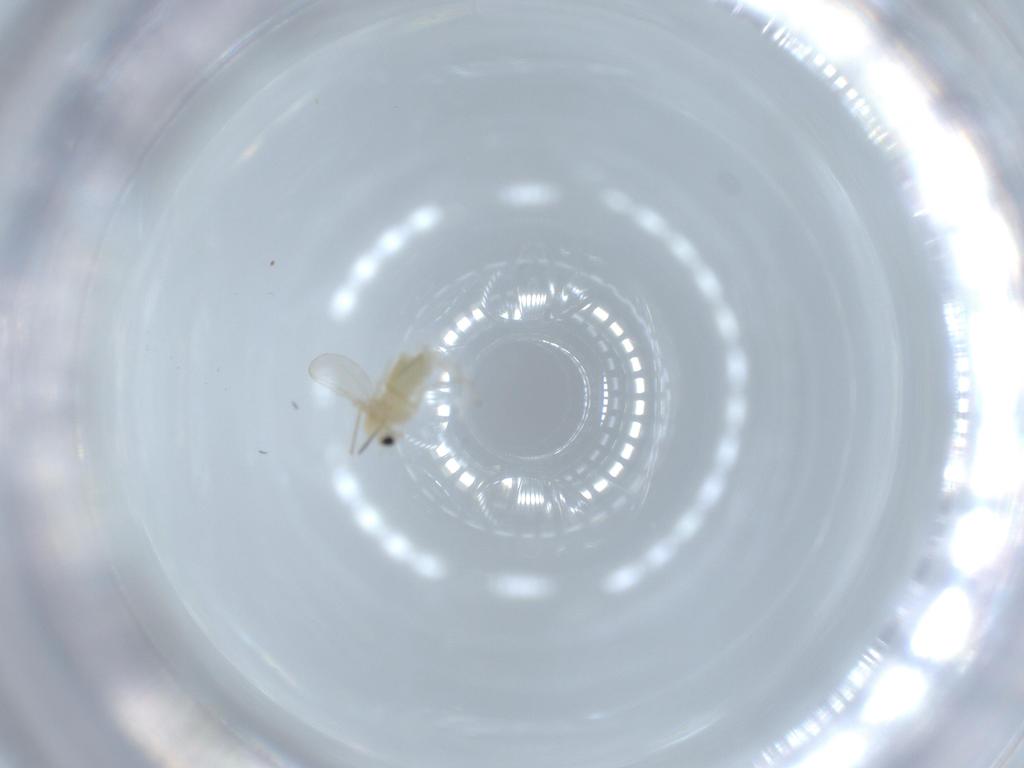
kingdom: Animalia
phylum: Arthropoda
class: Insecta
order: Diptera
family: Chironomidae
